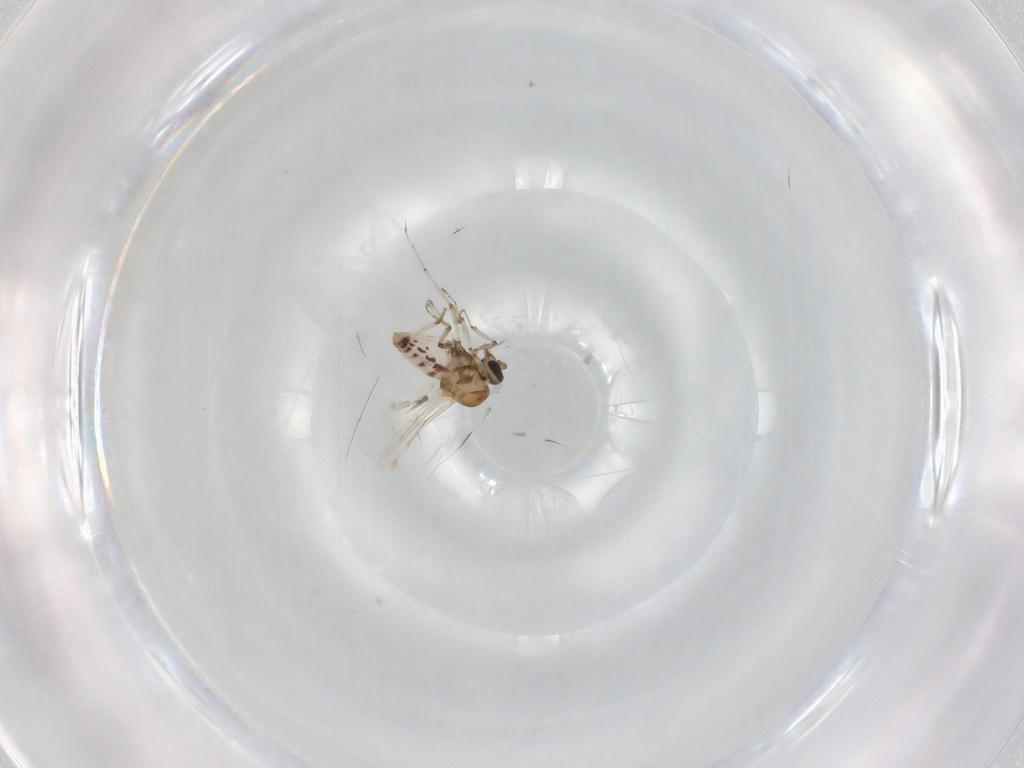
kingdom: Animalia
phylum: Arthropoda
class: Insecta
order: Diptera
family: Ceratopogonidae
